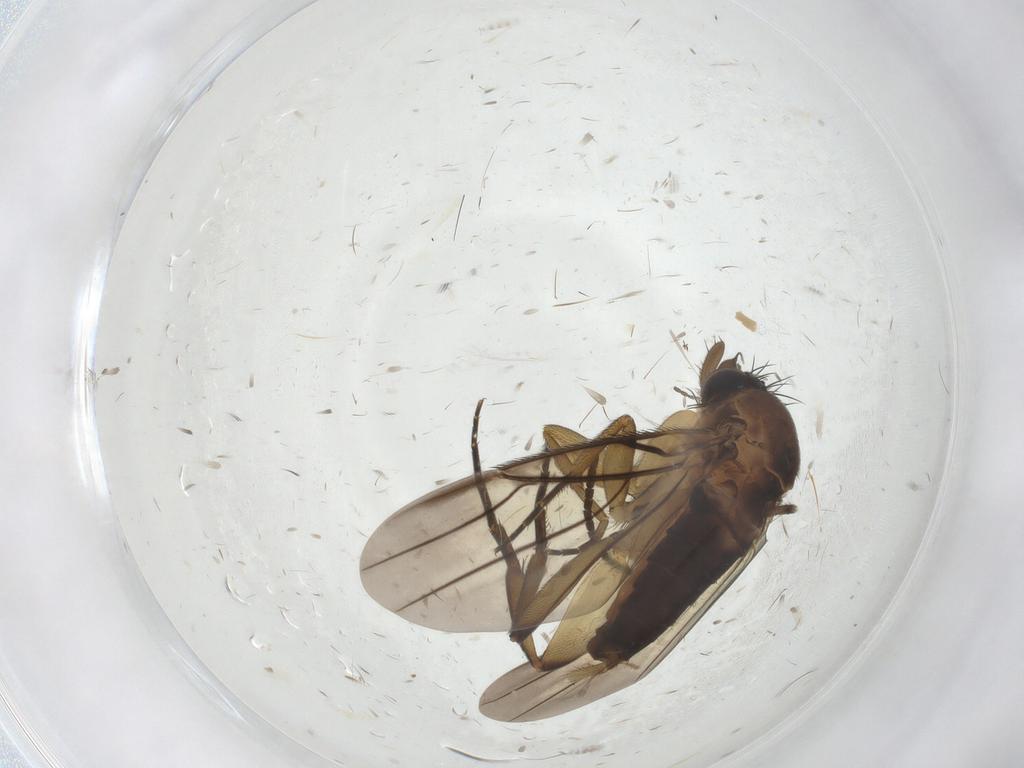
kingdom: Animalia
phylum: Arthropoda
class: Insecta
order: Diptera
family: Phoridae
